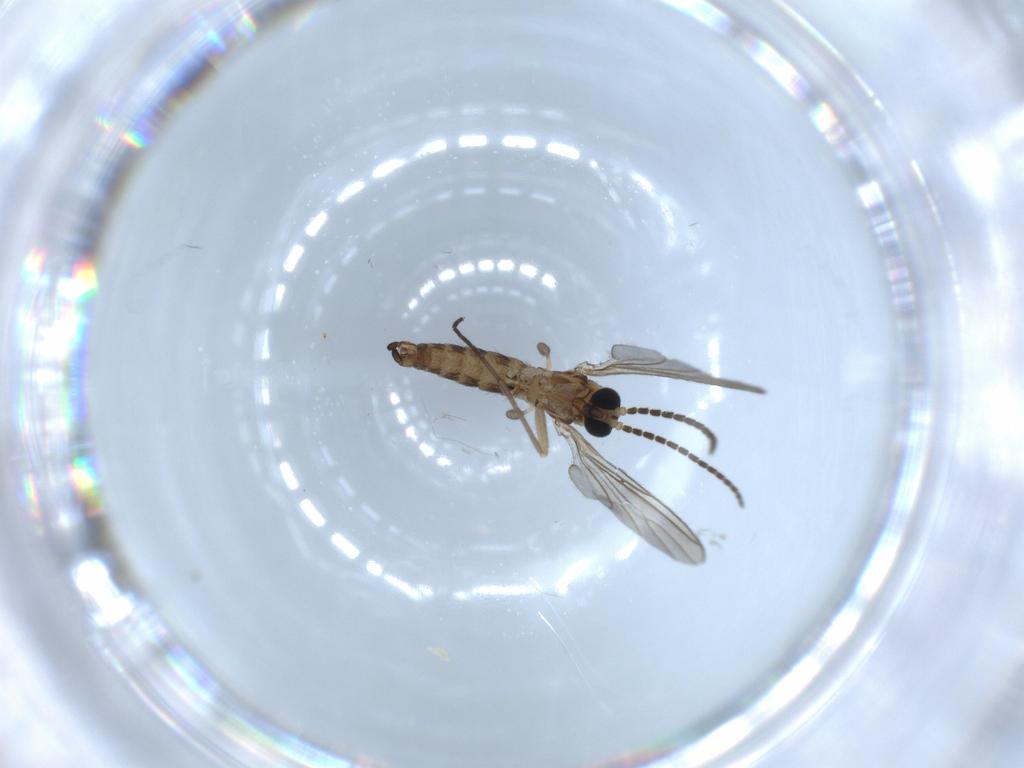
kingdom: Animalia
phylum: Arthropoda
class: Insecta
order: Diptera
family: Sciaridae
